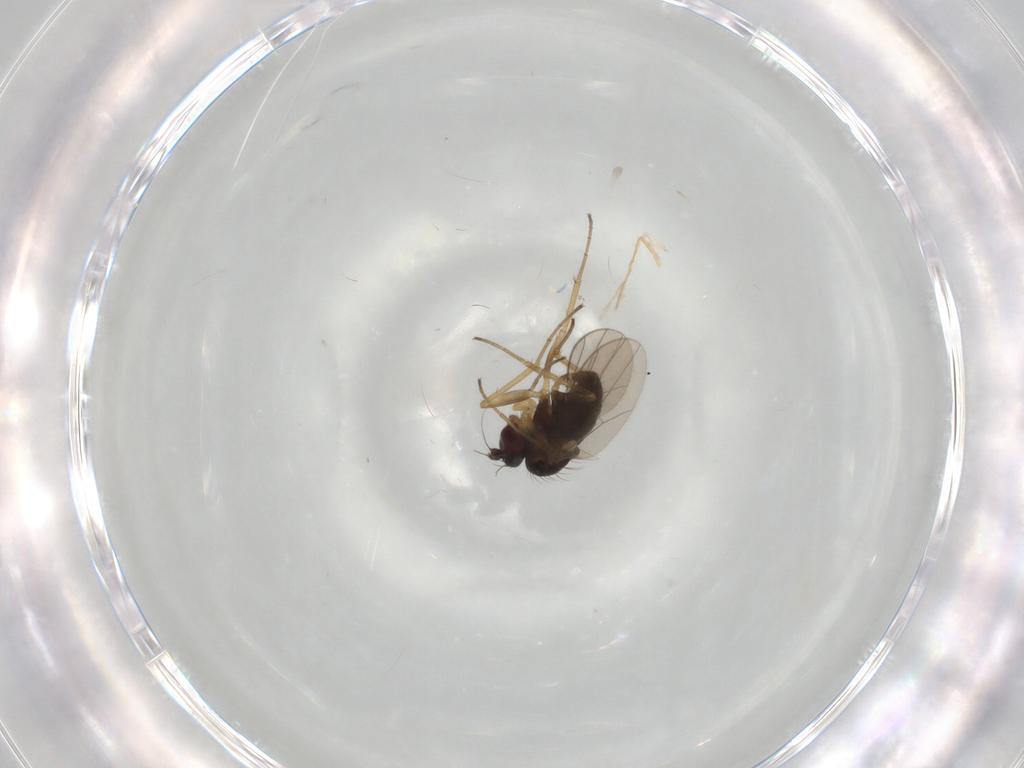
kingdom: Animalia
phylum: Arthropoda
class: Insecta
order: Diptera
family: Dolichopodidae
